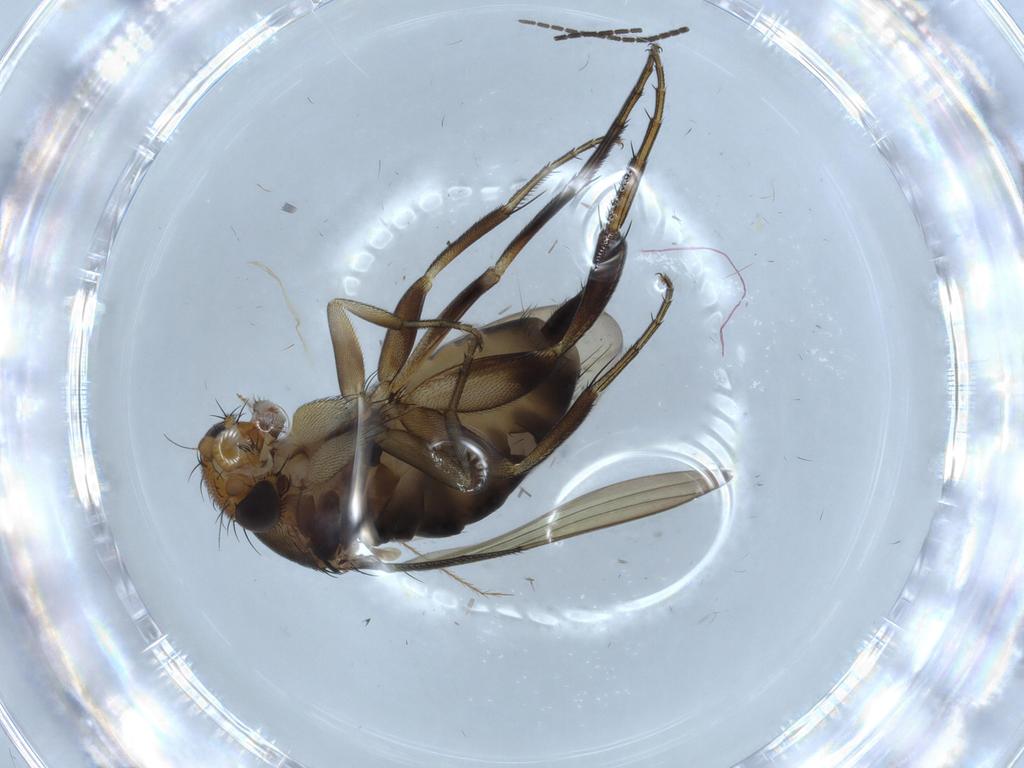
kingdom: Animalia
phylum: Arthropoda
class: Insecta
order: Diptera
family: Phoridae
